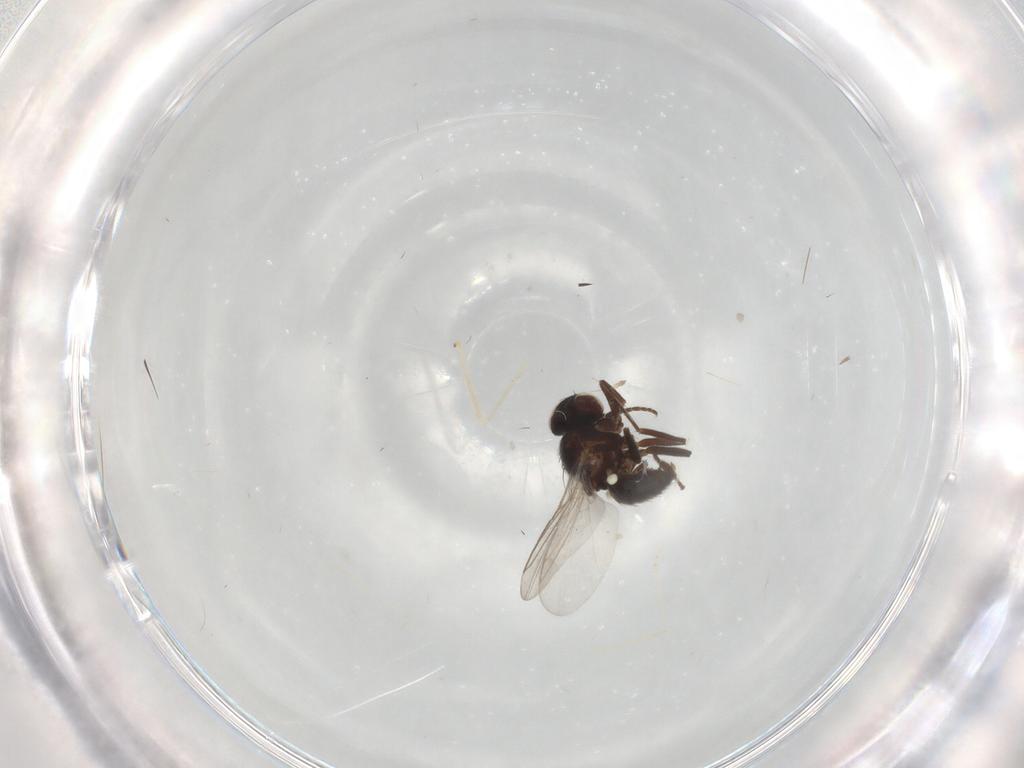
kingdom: Animalia
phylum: Arthropoda
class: Insecta
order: Diptera
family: Cecidomyiidae
